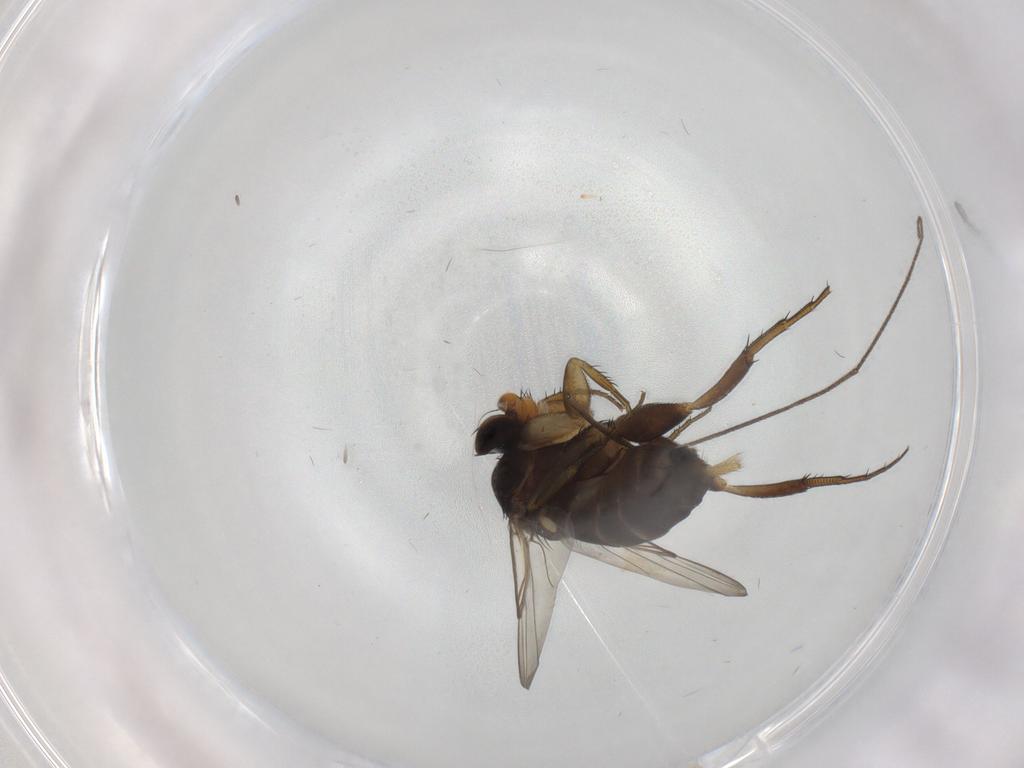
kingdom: Animalia
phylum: Arthropoda
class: Insecta
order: Diptera
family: Phoridae
